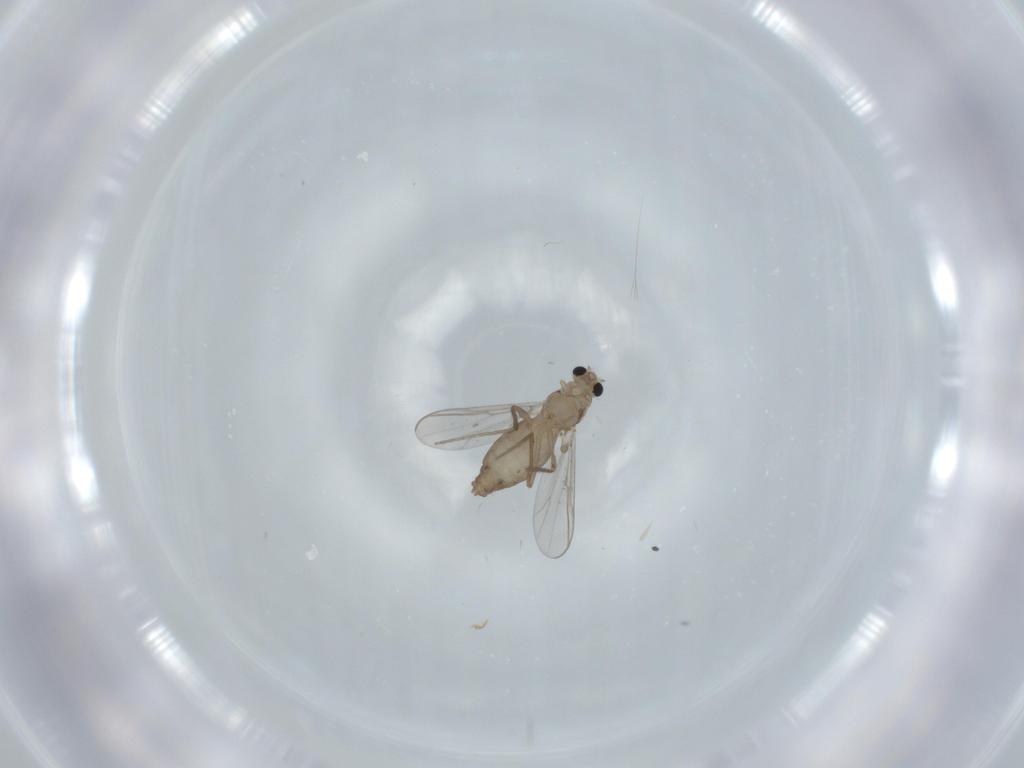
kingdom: Animalia
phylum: Arthropoda
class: Insecta
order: Diptera
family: Chironomidae
